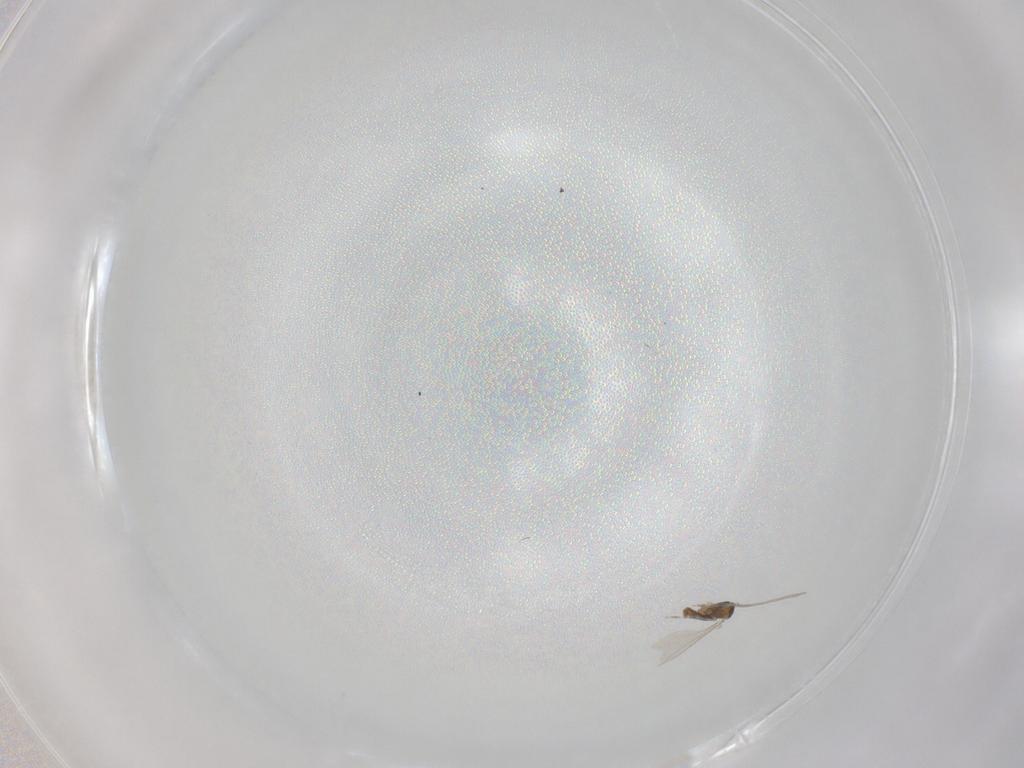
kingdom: Animalia
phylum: Arthropoda
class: Insecta
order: Diptera
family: Cecidomyiidae
